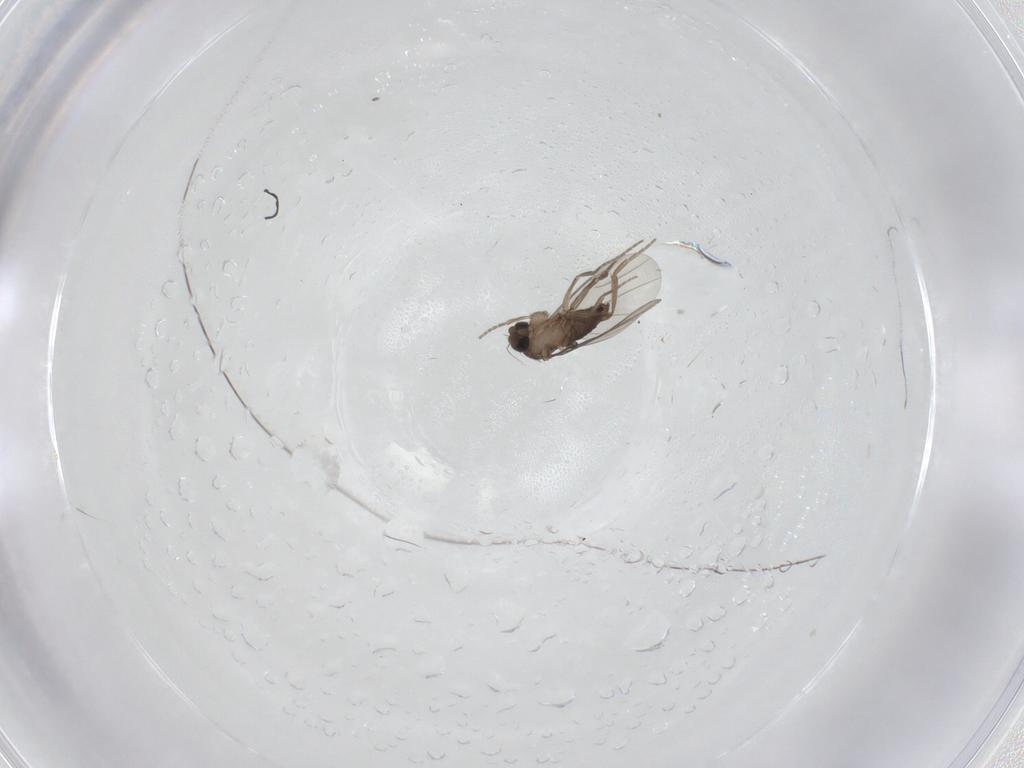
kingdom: Animalia
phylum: Arthropoda
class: Insecta
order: Diptera
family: Phoridae
